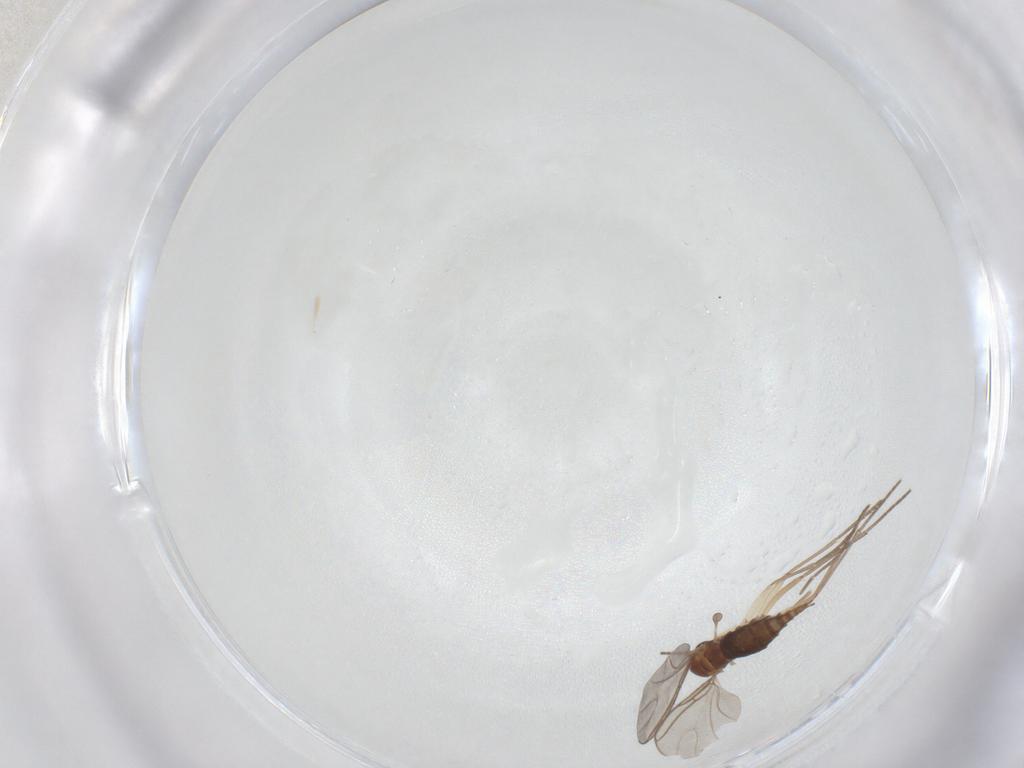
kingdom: Animalia
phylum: Arthropoda
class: Insecta
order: Diptera
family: Sciaridae
